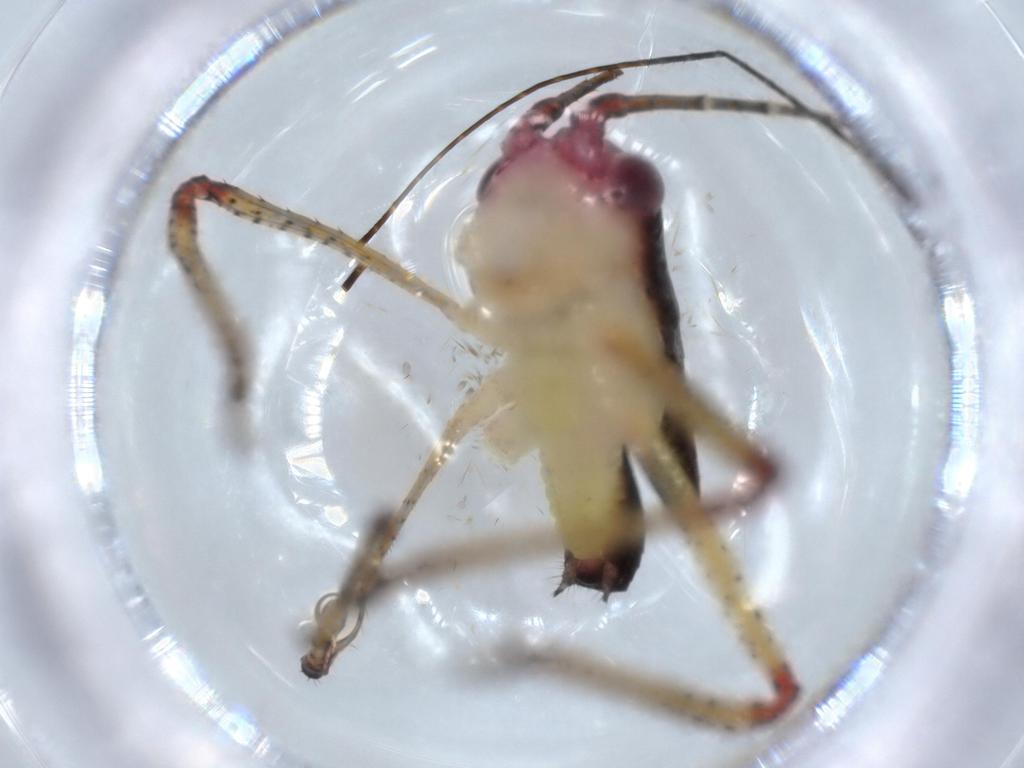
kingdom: Animalia
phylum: Arthropoda
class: Insecta
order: Orthoptera
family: Tettigoniidae
